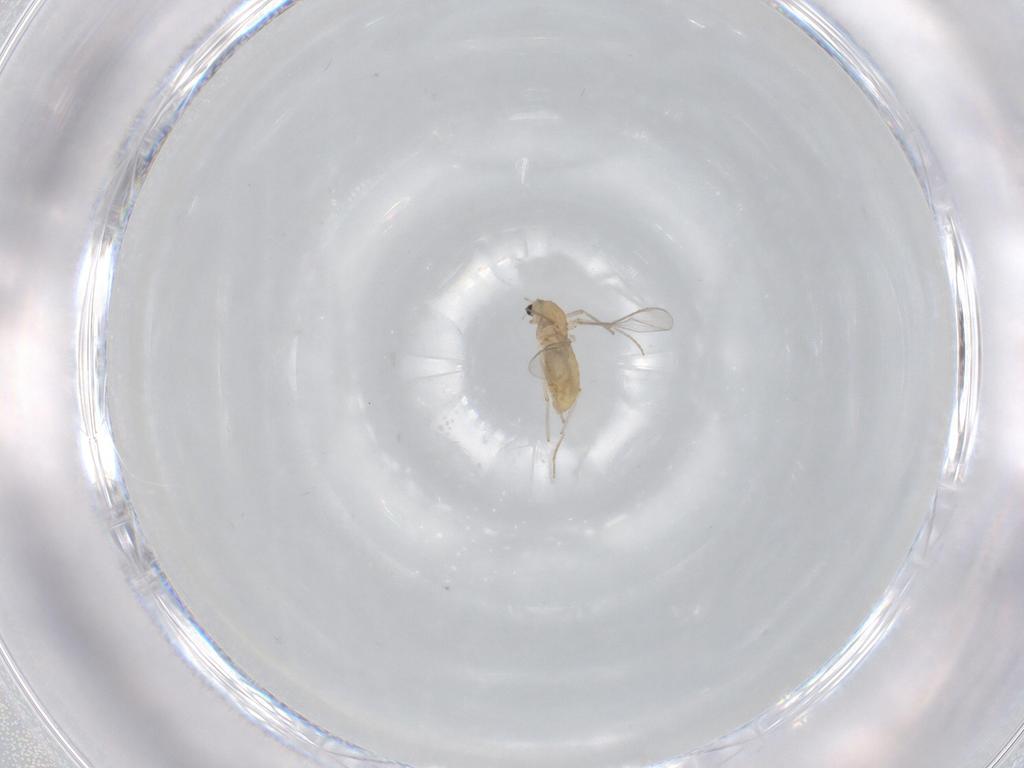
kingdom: Animalia
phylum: Arthropoda
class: Insecta
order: Diptera
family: Chironomidae
